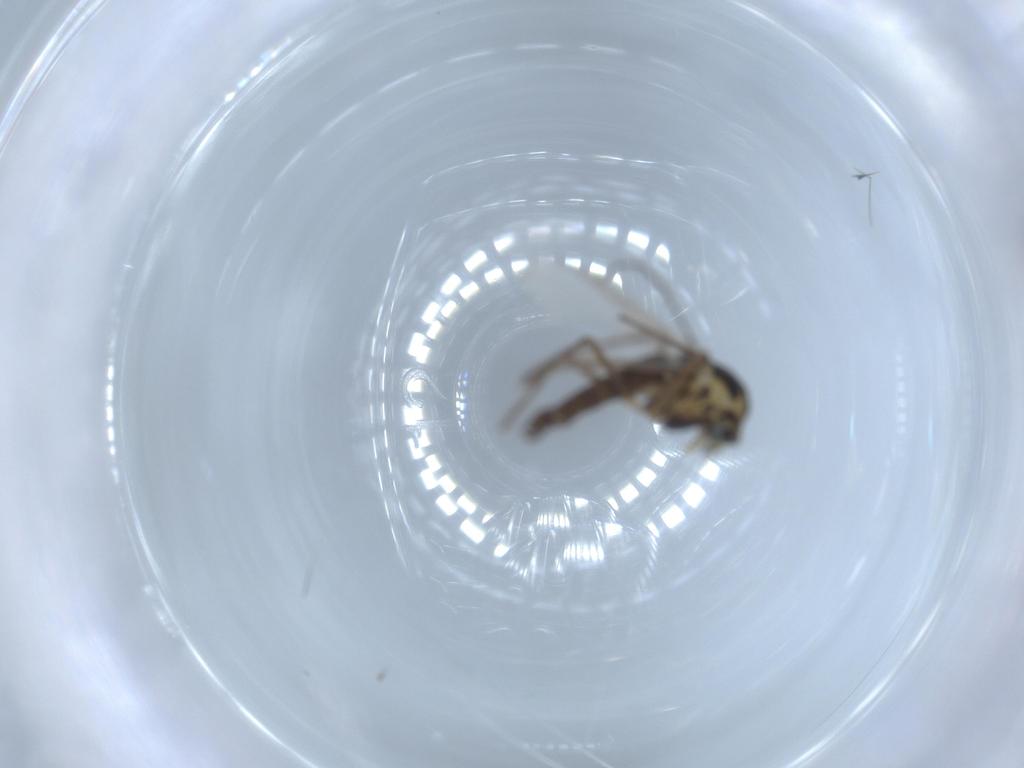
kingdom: Animalia
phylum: Arthropoda
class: Insecta
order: Diptera
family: Chironomidae
